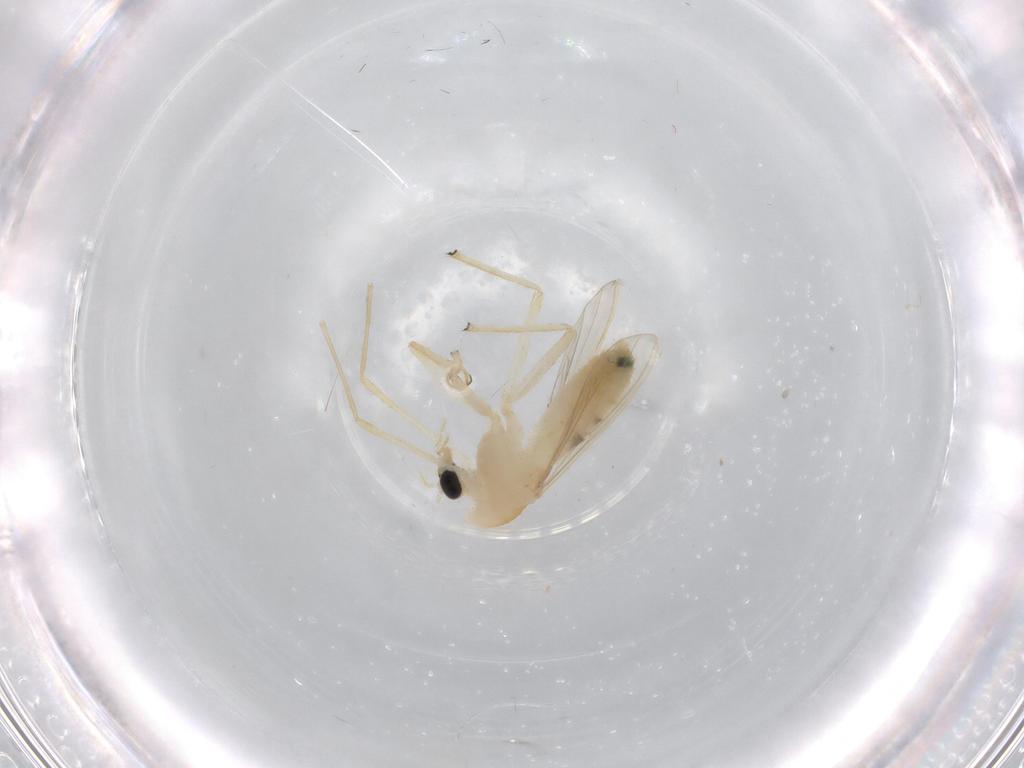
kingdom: Animalia
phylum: Arthropoda
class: Insecta
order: Diptera
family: Chironomidae
